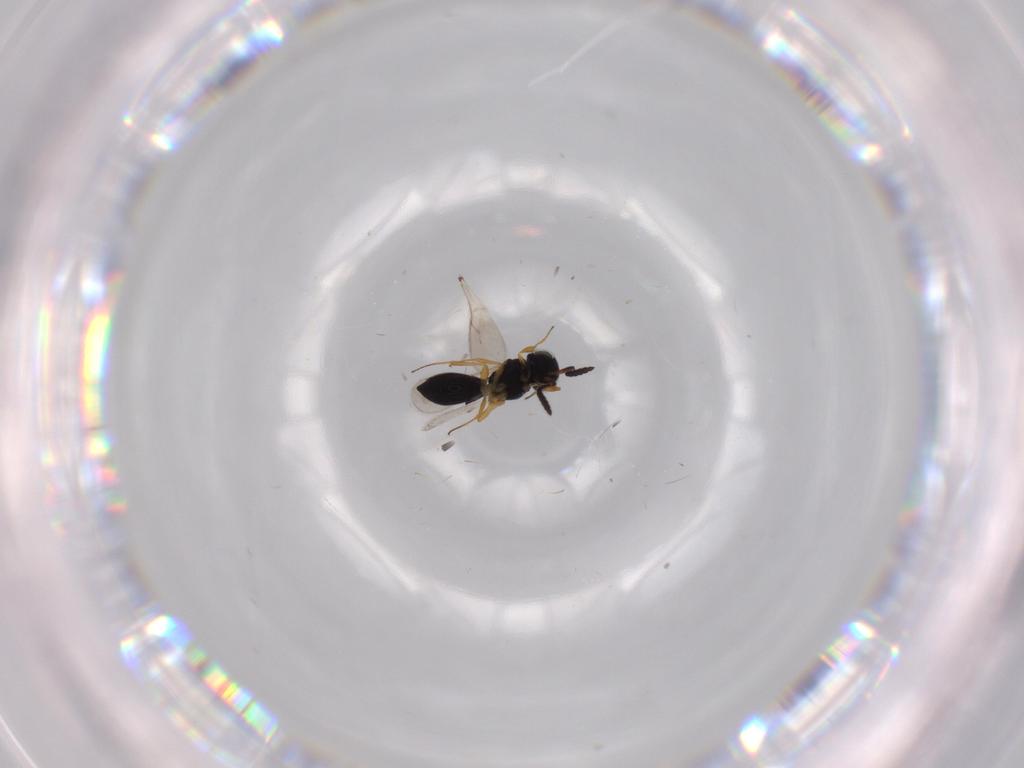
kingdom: Animalia
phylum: Arthropoda
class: Insecta
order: Hymenoptera
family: Scelionidae
